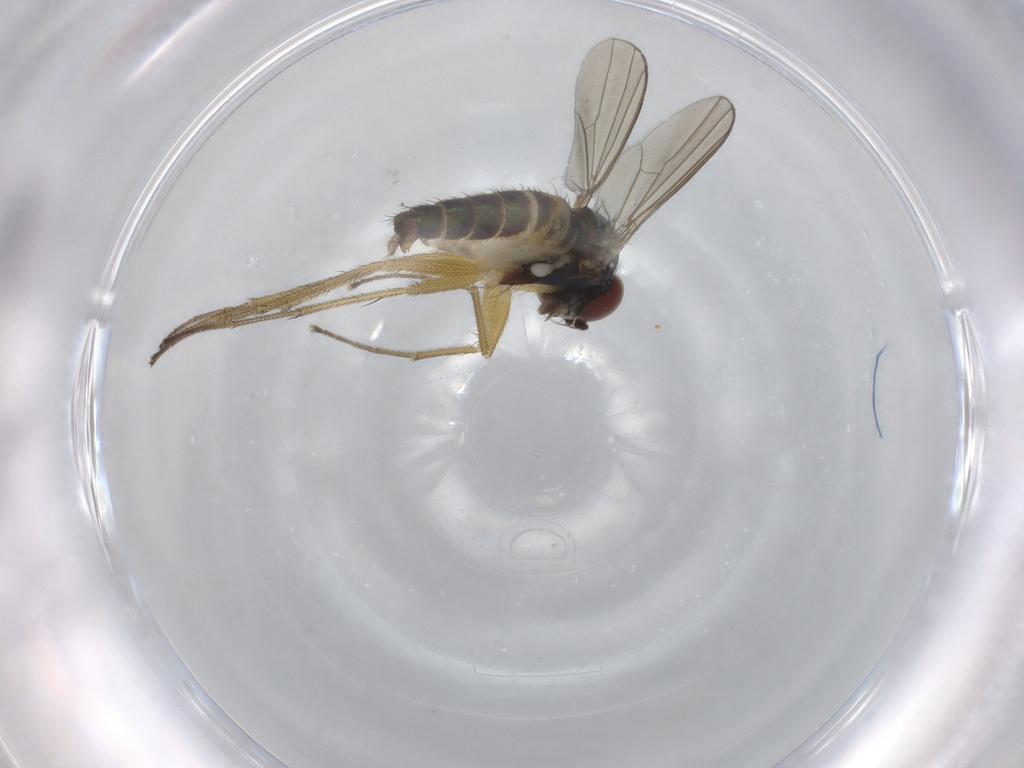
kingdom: Animalia
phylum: Arthropoda
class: Insecta
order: Diptera
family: Dolichopodidae
